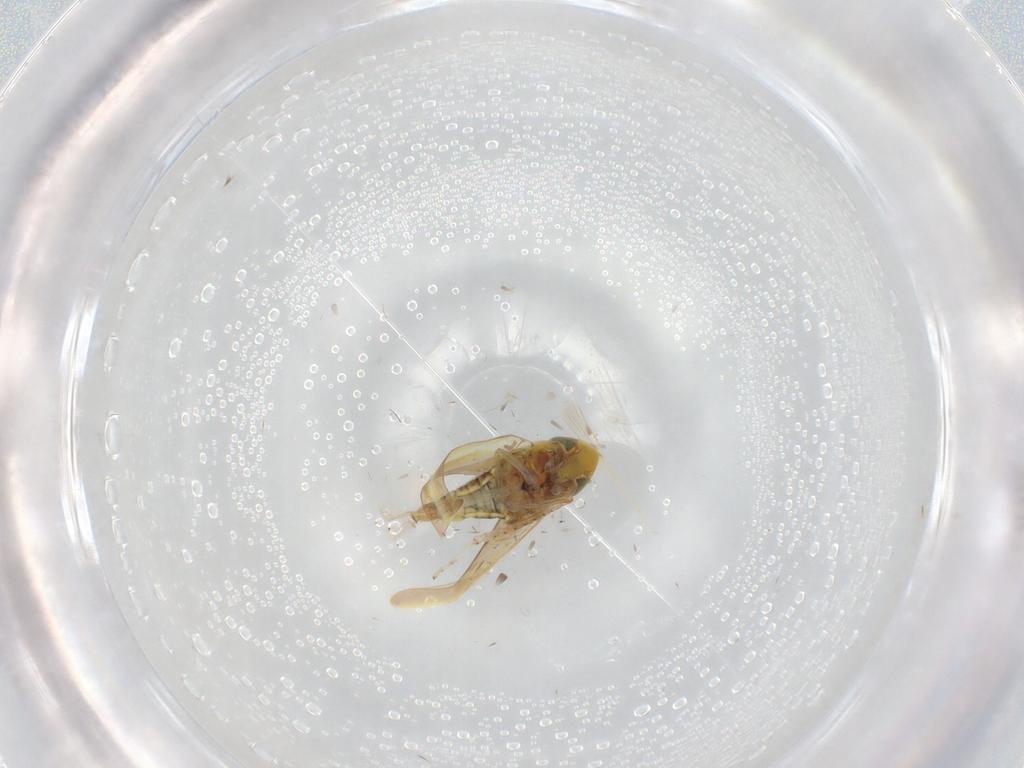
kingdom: Animalia
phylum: Arthropoda
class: Insecta
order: Hemiptera
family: Cicadellidae
